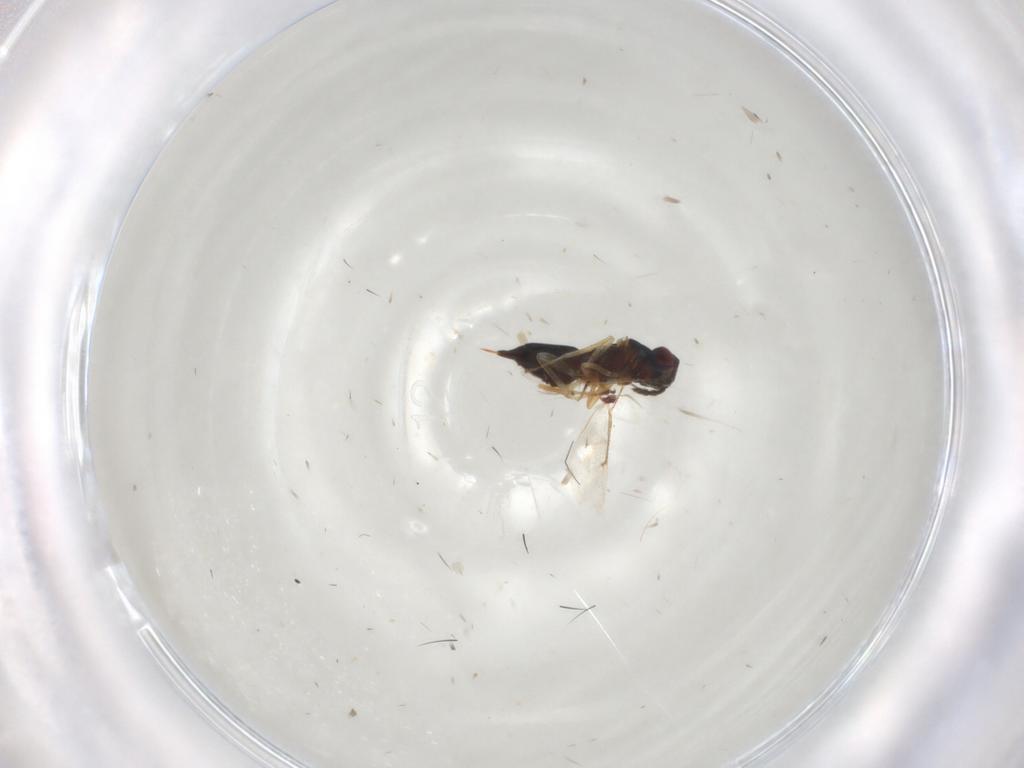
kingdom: Animalia
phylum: Arthropoda
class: Insecta
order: Hymenoptera
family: Eulophidae
